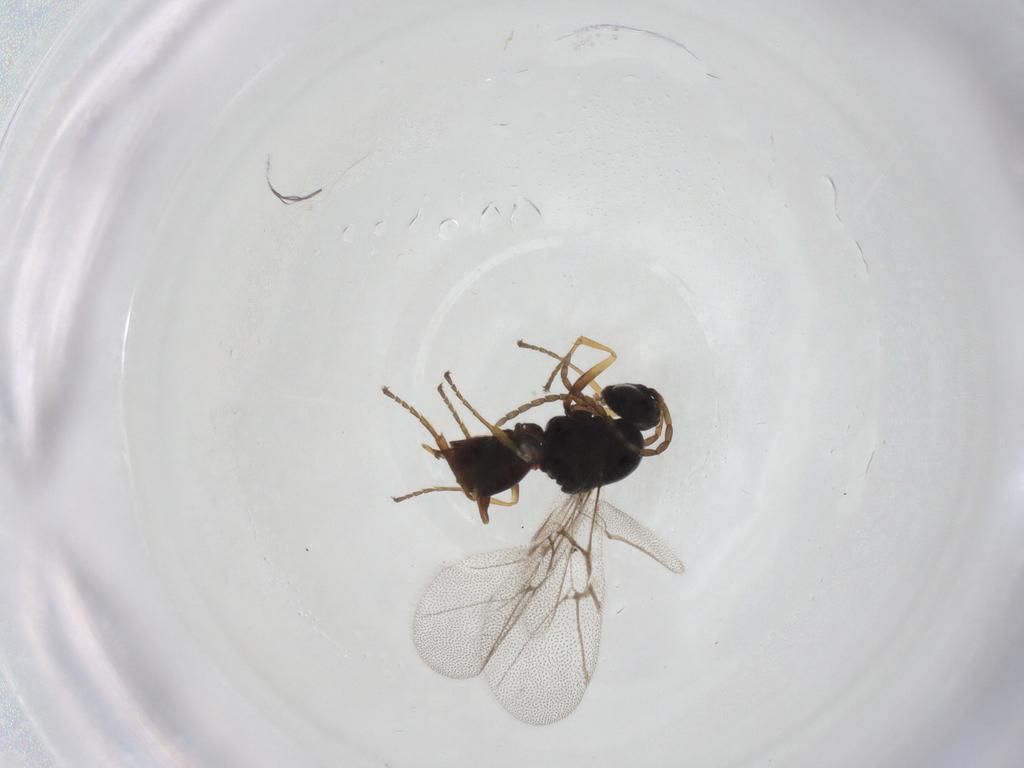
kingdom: Animalia
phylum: Arthropoda
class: Insecta
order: Hymenoptera
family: Cynipidae
